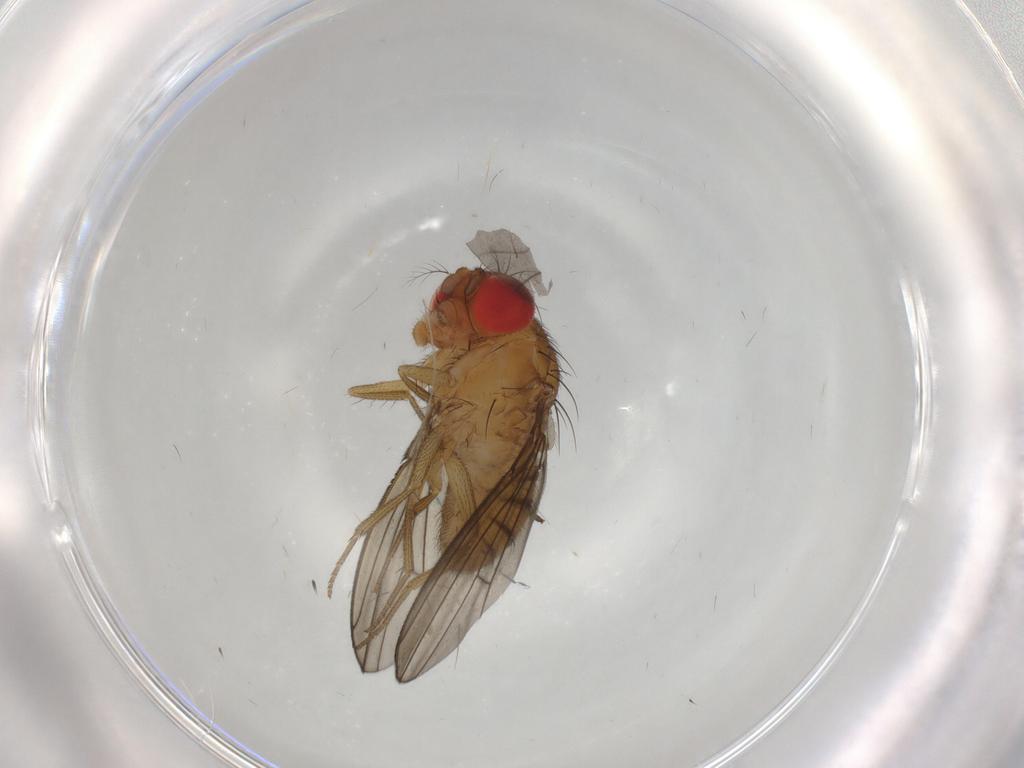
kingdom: Animalia
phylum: Arthropoda
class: Insecta
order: Diptera
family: Drosophilidae
